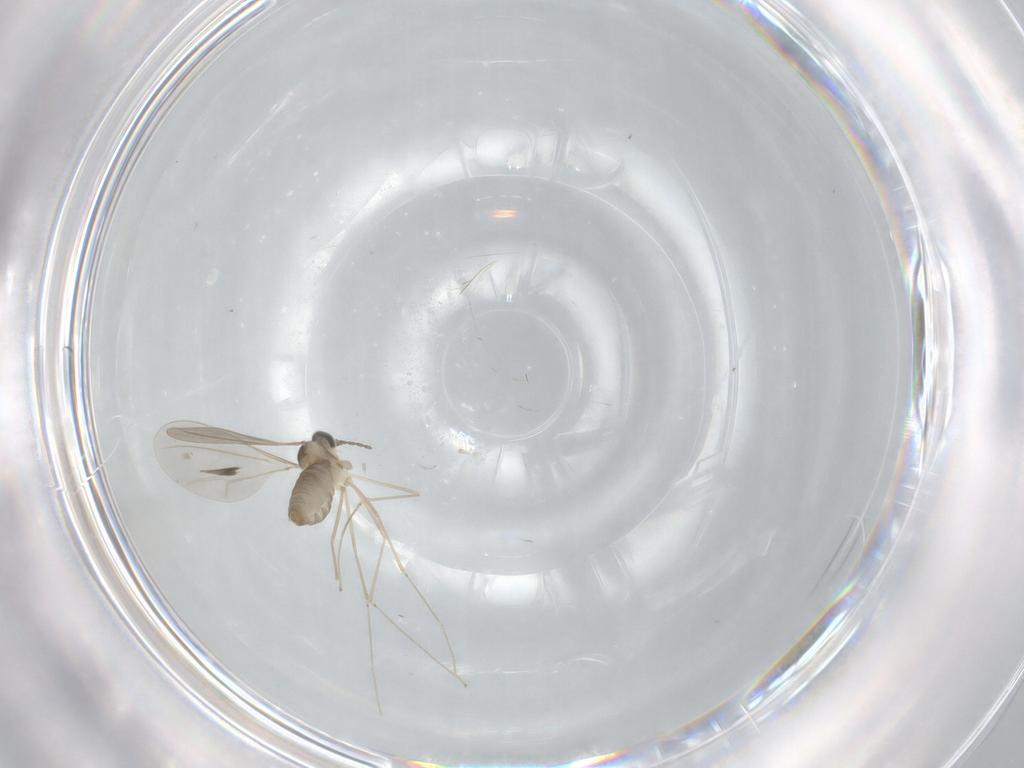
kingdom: Animalia
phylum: Arthropoda
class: Insecta
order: Diptera
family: Cecidomyiidae
